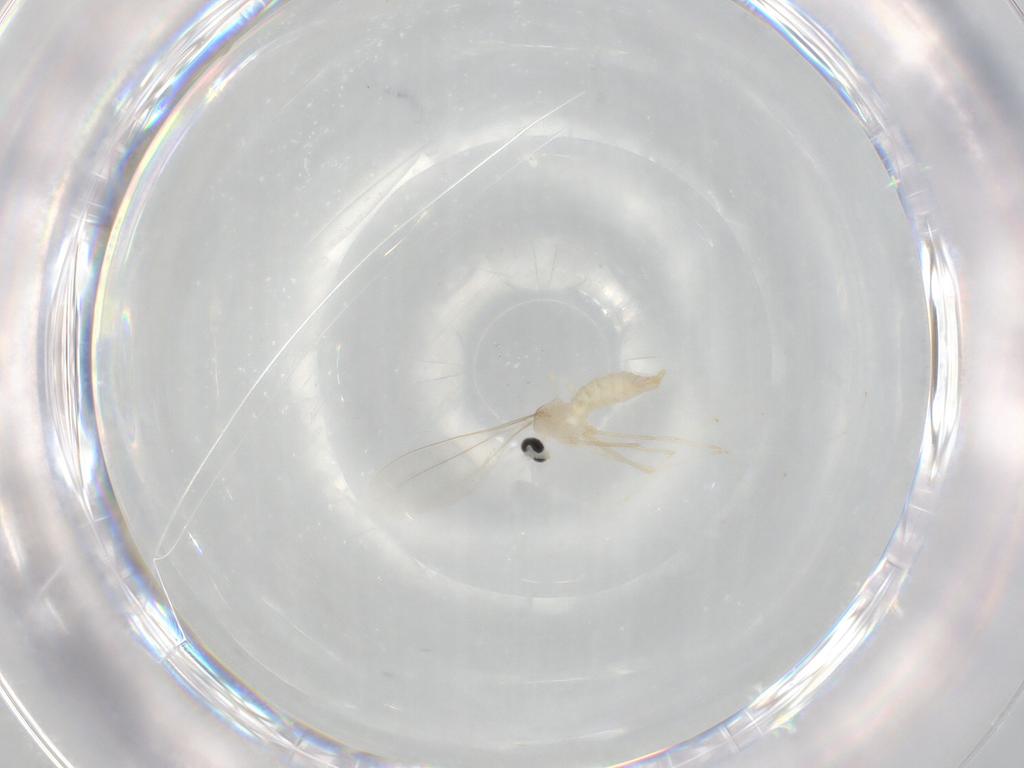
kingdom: Animalia
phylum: Arthropoda
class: Insecta
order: Diptera
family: Cecidomyiidae
